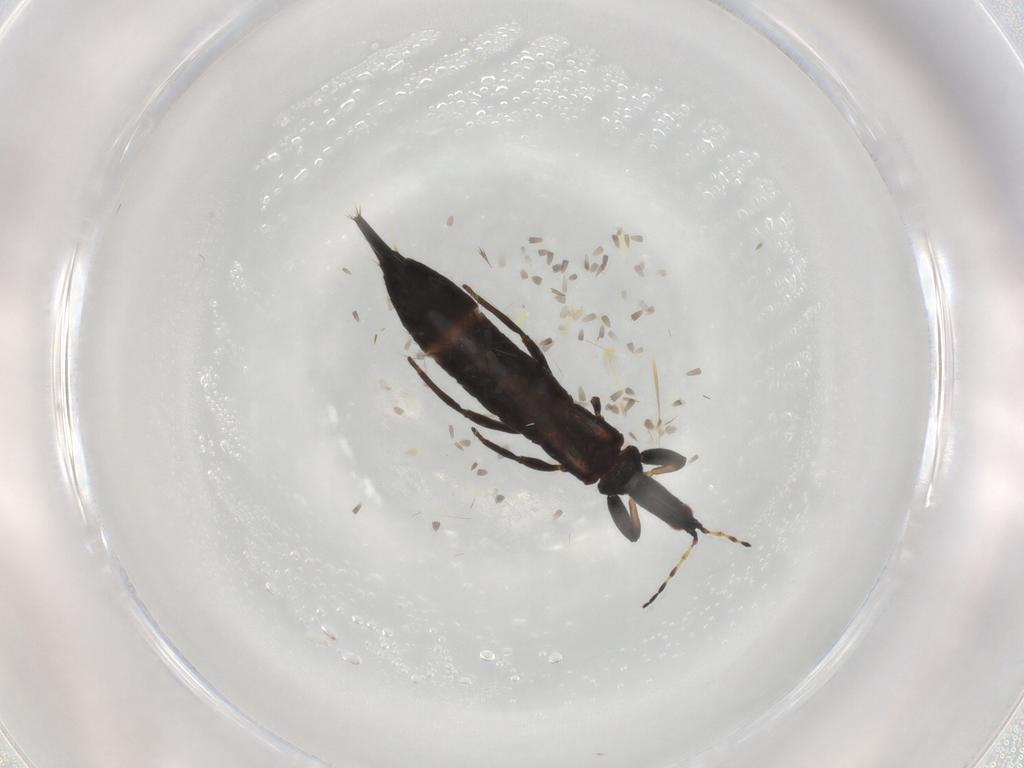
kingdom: Animalia
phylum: Arthropoda
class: Insecta
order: Thysanoptera
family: Phlaeothripidae
